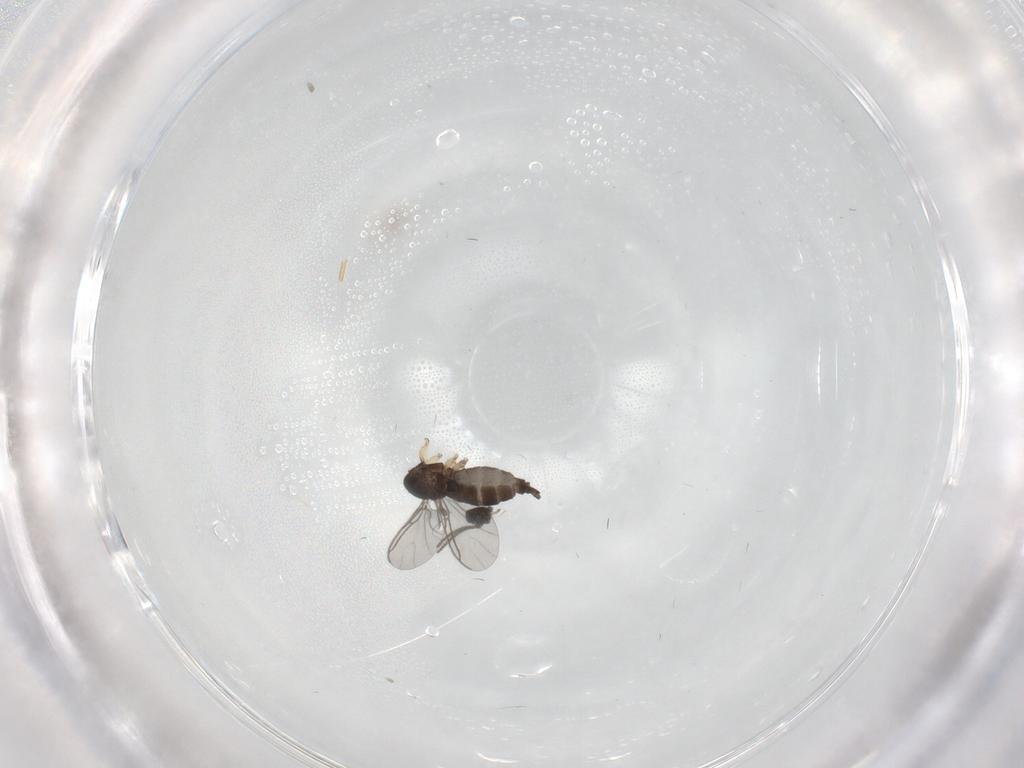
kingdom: Animalia
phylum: Arthropoda
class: Insecta
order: Diptera
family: Sciaridae
